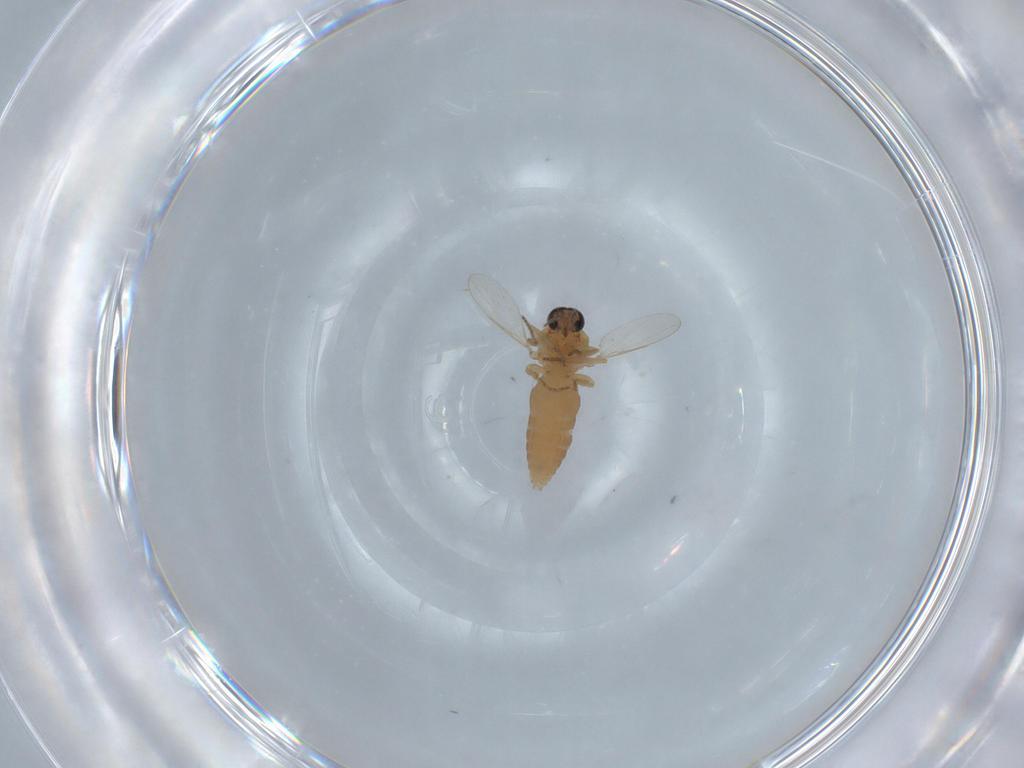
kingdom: Animalia
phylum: Arthropoda
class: Insecta
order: Diptera
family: Ceratopogonidae
